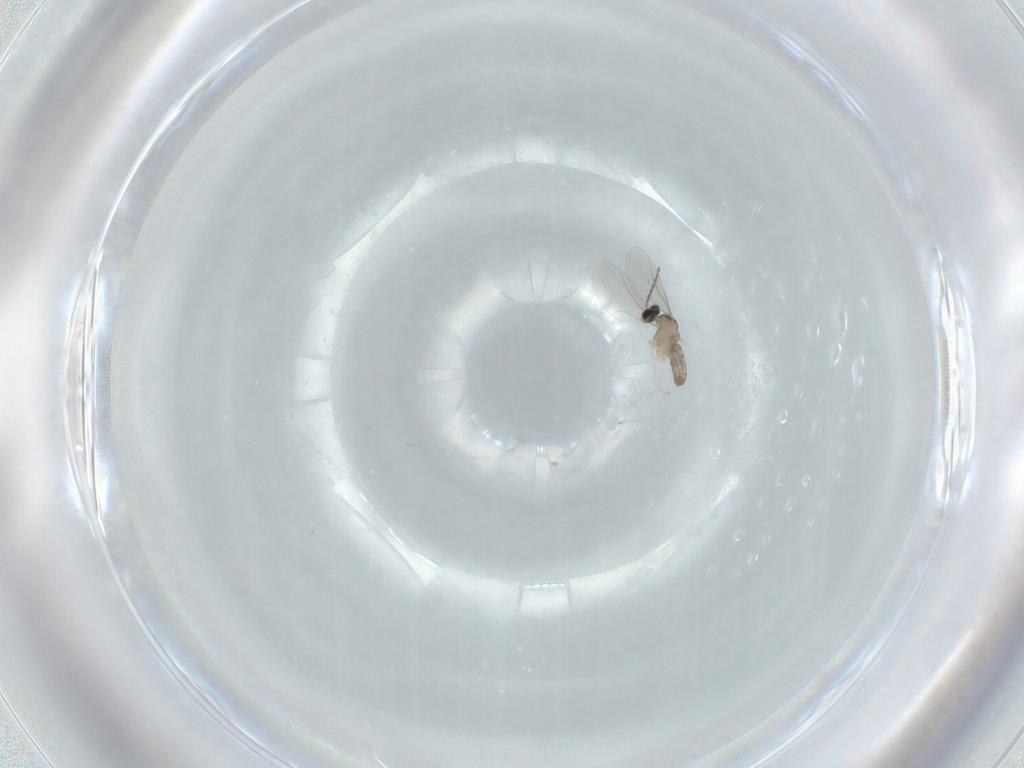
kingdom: Animalia
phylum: Arthropoda
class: Insecta
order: Diptera
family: Cecidomyiidae
